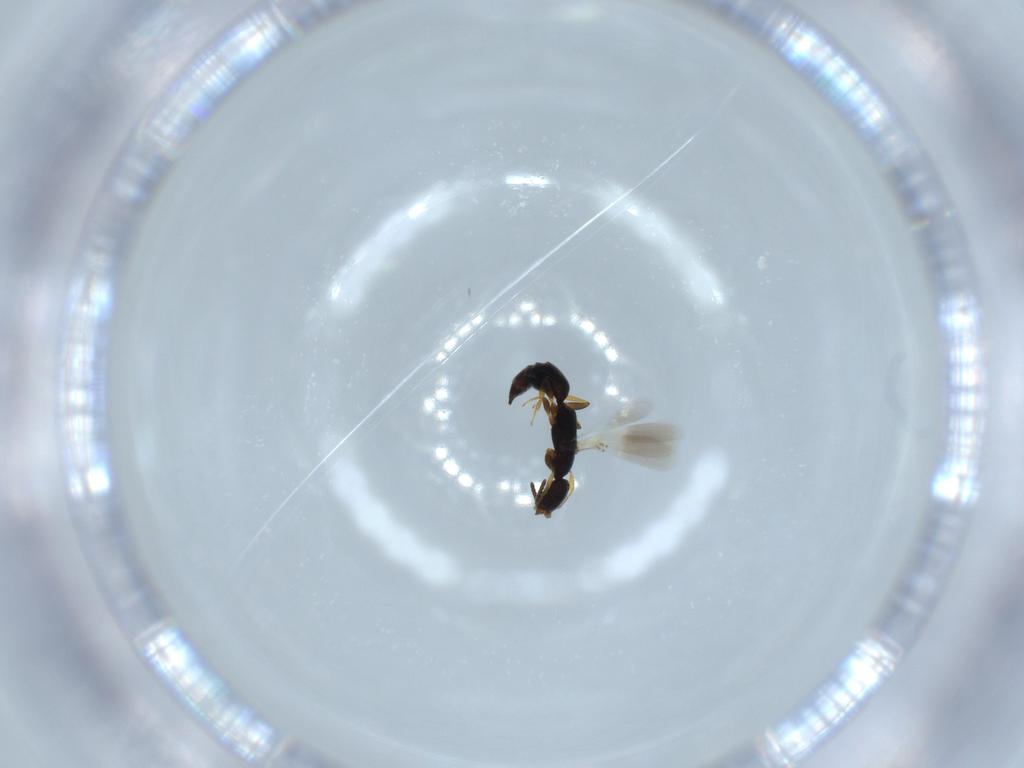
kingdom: Animalia
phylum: Arthropoda
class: Insecta
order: Hymenoptera
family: Bethylidae
